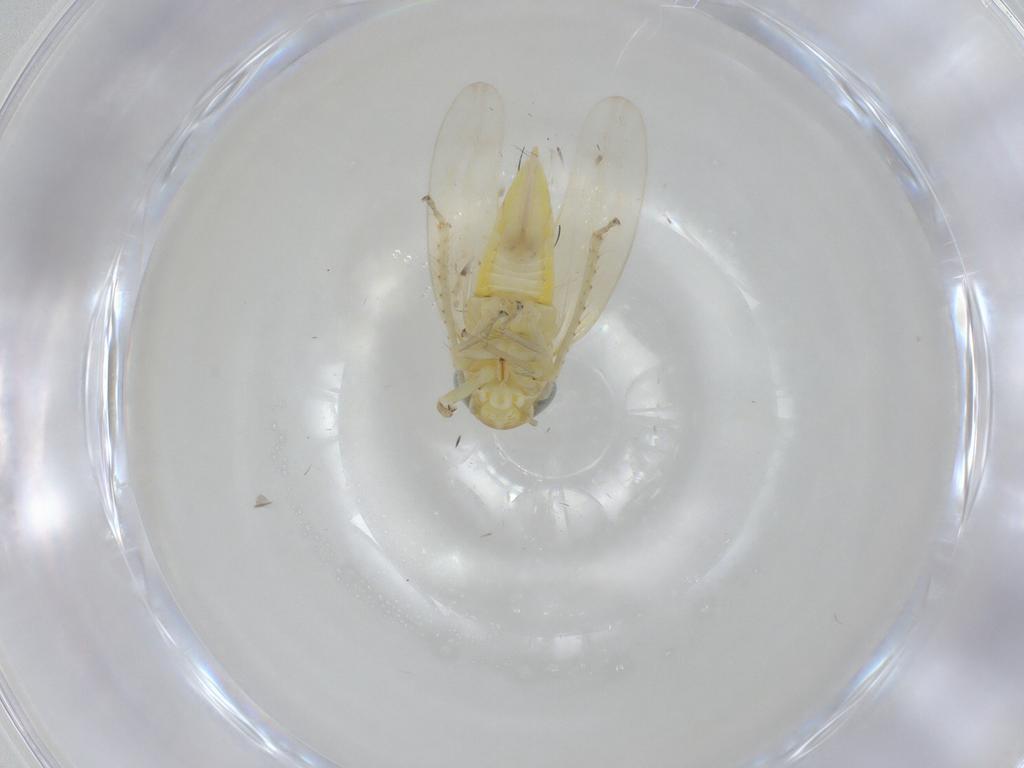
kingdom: Animalia
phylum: Arthropoda
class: Insecta
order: Hemiptera
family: Cicadellidae
